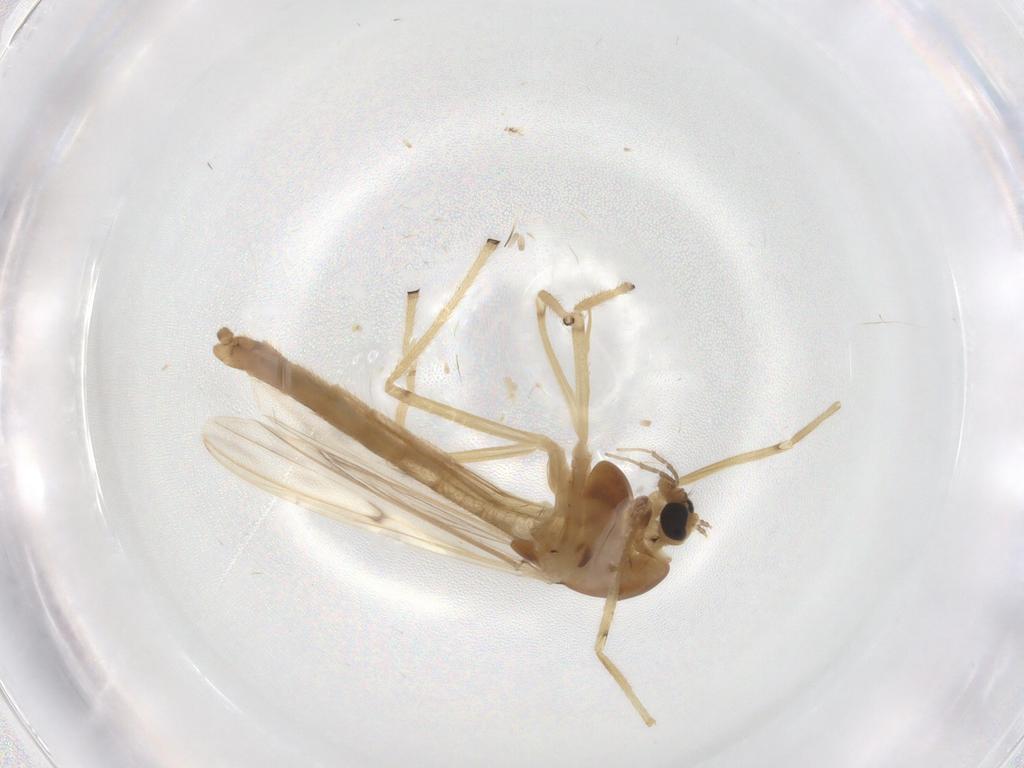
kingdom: Animalia
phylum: Arthropoda
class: Insecta
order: Diptera
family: Chironomidae
